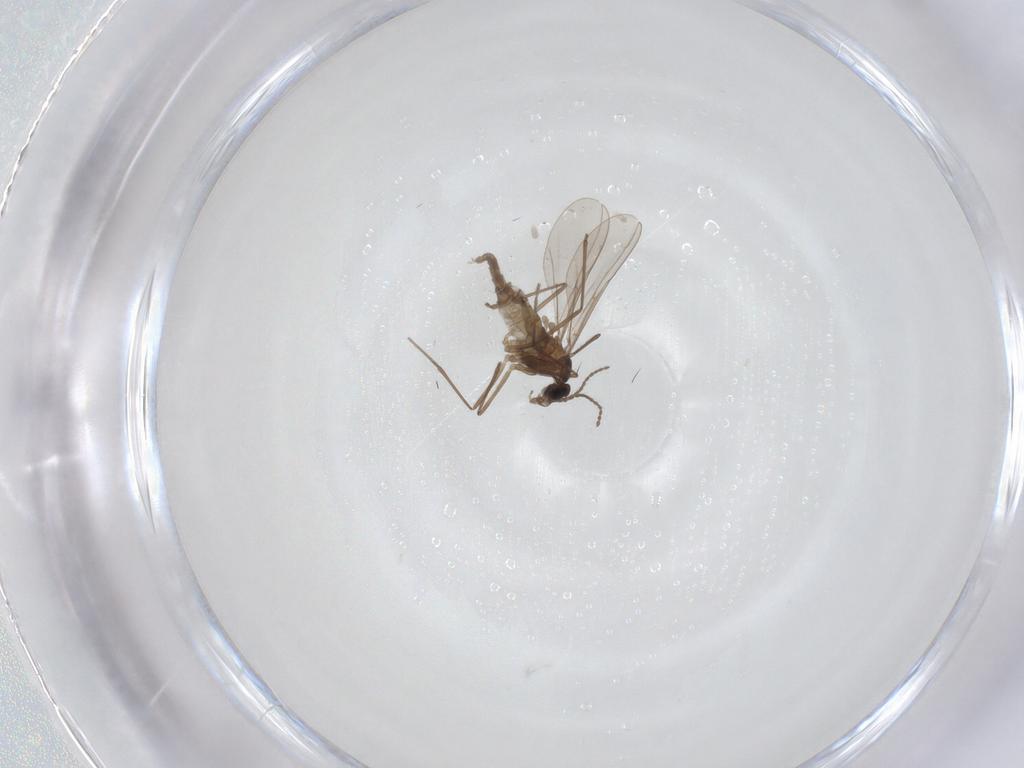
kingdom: Animalia
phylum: Arthropoda
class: Insecta
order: Diptera
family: Cecidomyiidae
